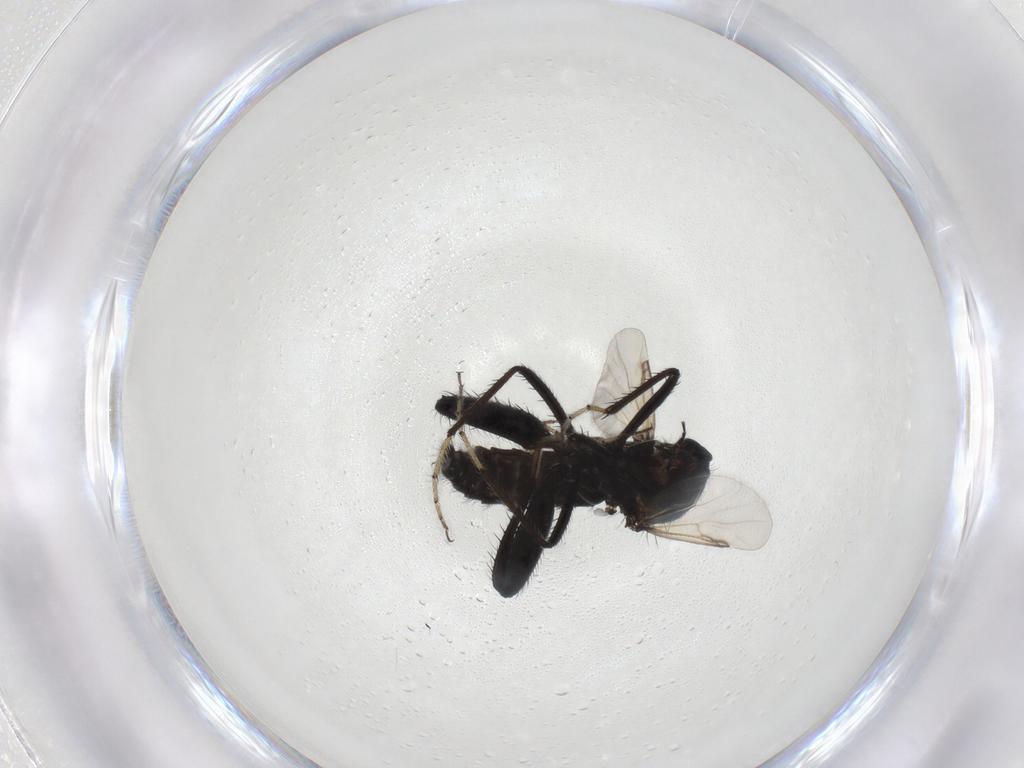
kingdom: Animalia
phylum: Arthropoda
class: Insecta
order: Diptera
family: Ceratopogonidae
